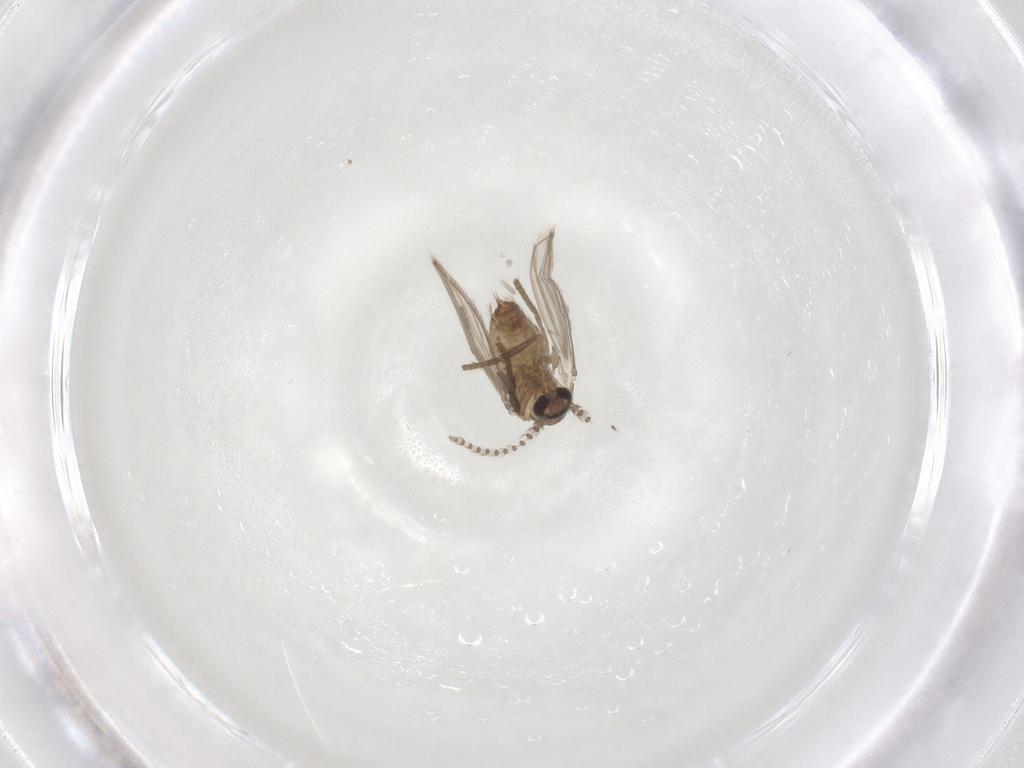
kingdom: Animalia
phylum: Arthropoda
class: Insecta
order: Diptera
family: Psychodidae
